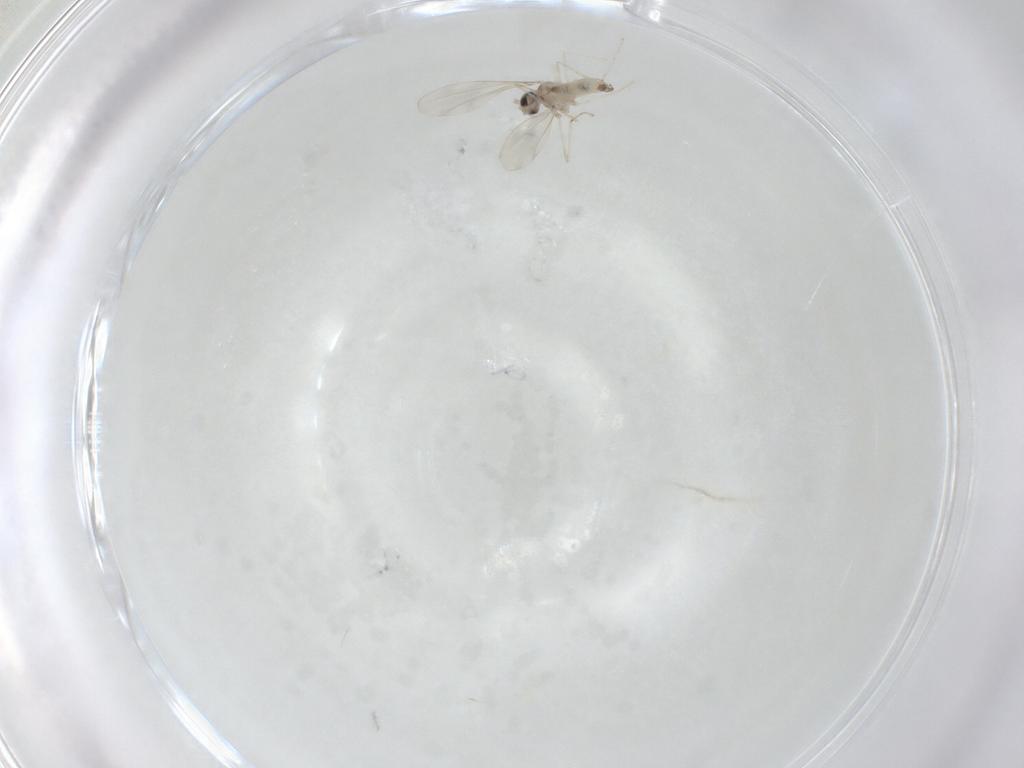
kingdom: Animalia
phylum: Arthropoda
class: Insecta
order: Diptera
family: Cecidomyiidae
